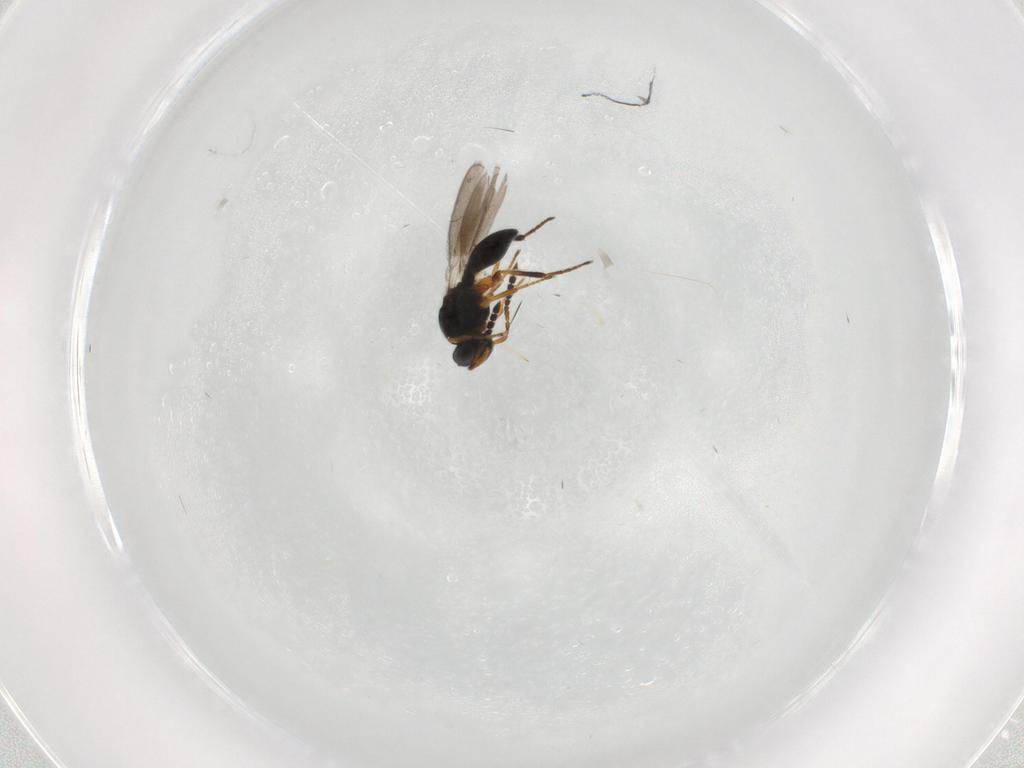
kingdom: Animalia
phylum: Arthropoda
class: Insecta
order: Hymenoptera
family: Platygastridae
